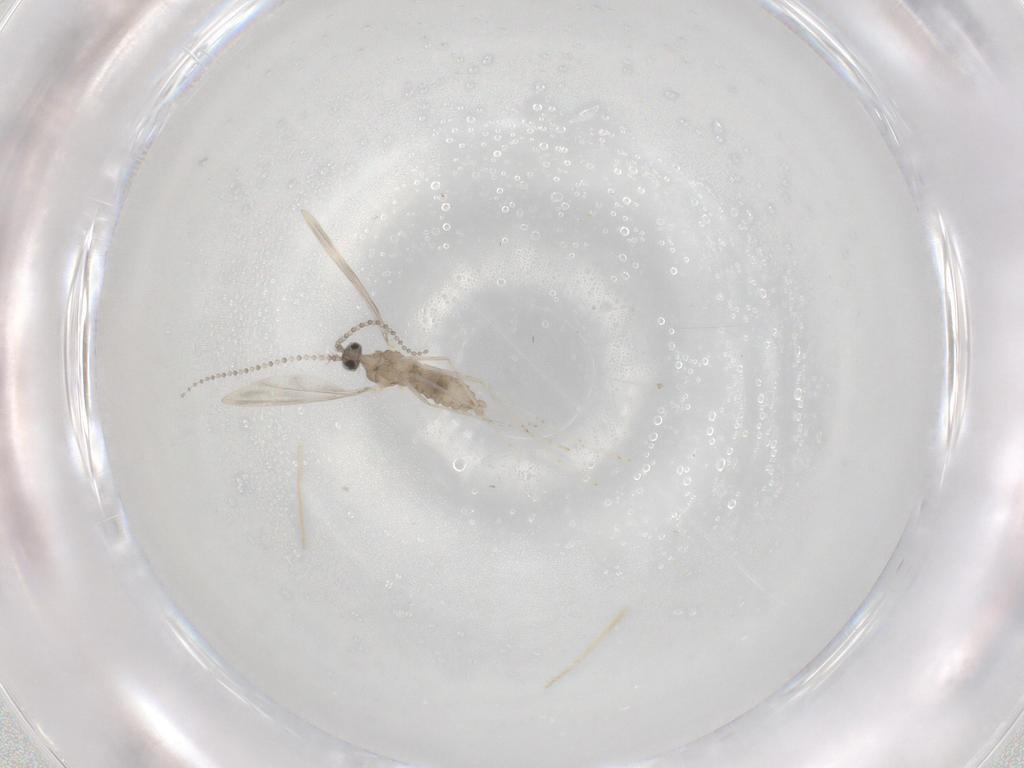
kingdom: Animalia
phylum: Arthropoda
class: Insecta
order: Diptera
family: Cecidomyiidae
